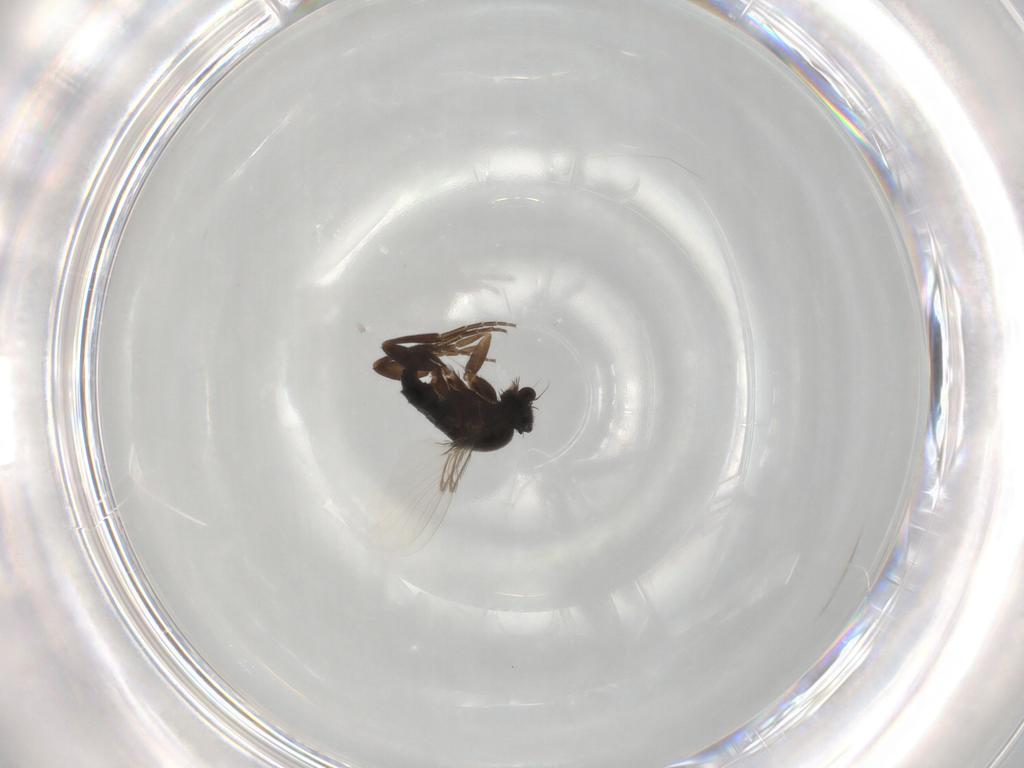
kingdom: Animalia
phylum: Arthropoda
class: Insecta
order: Diptera
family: Phoridae
